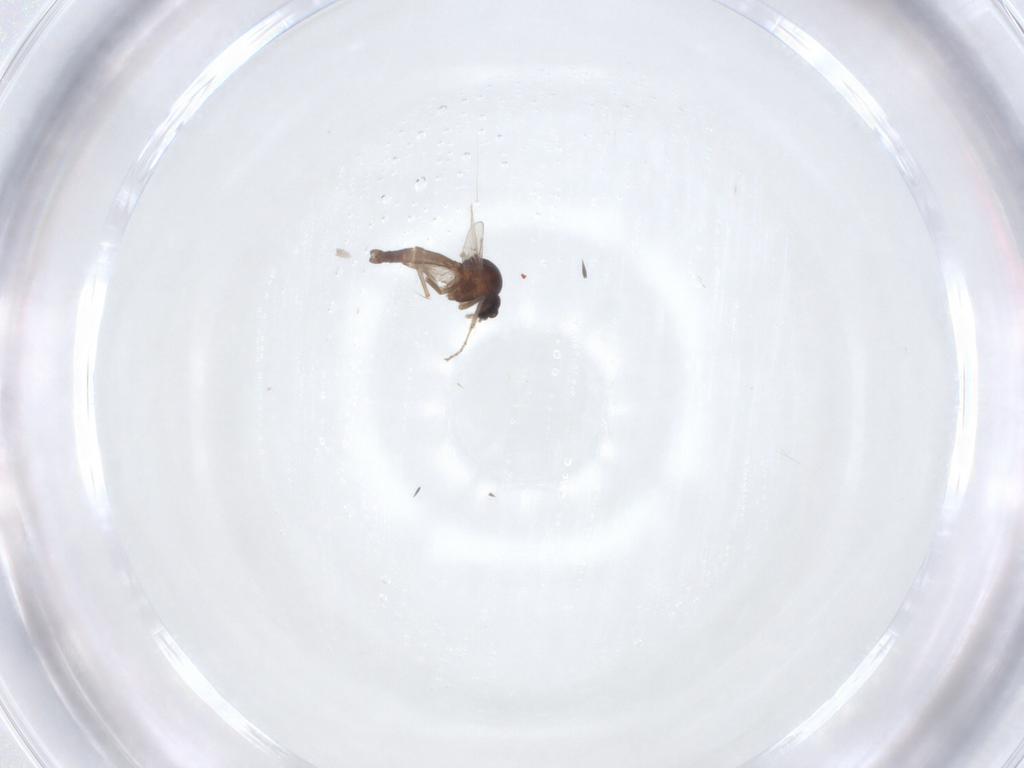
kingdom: Animalia
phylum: Arthropoda
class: Insecta
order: Diptera
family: Ceratopogonidae
